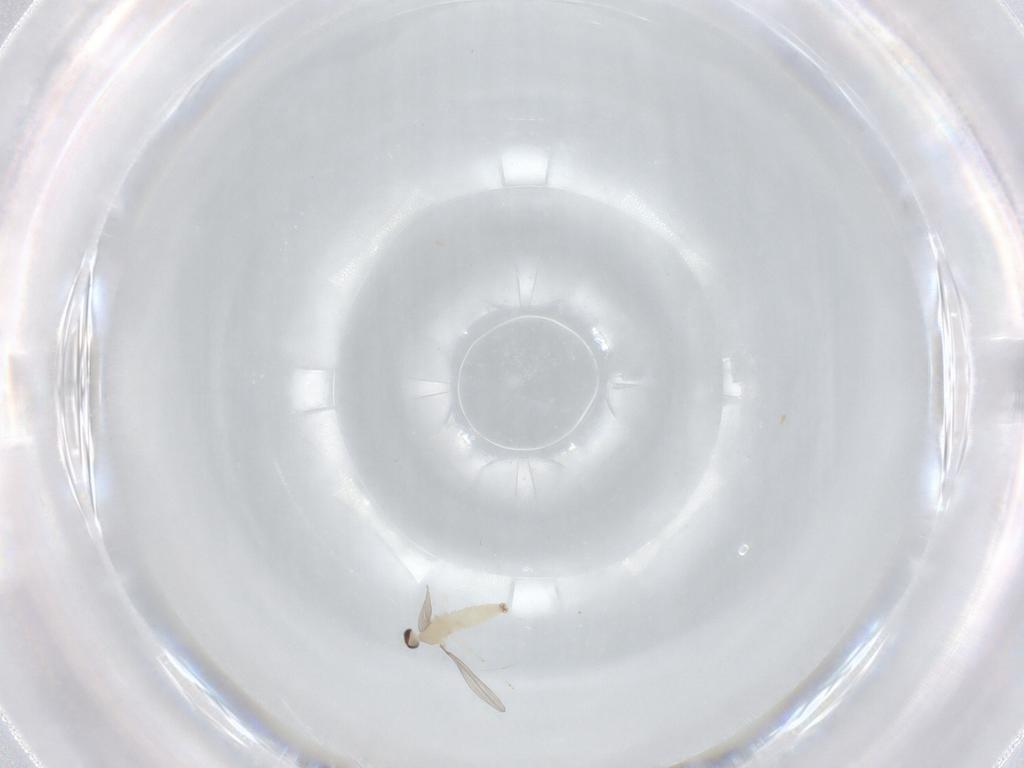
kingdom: Animalia
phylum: Arthropoda
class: Insecta
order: Diptera
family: Cecidomyiidae
